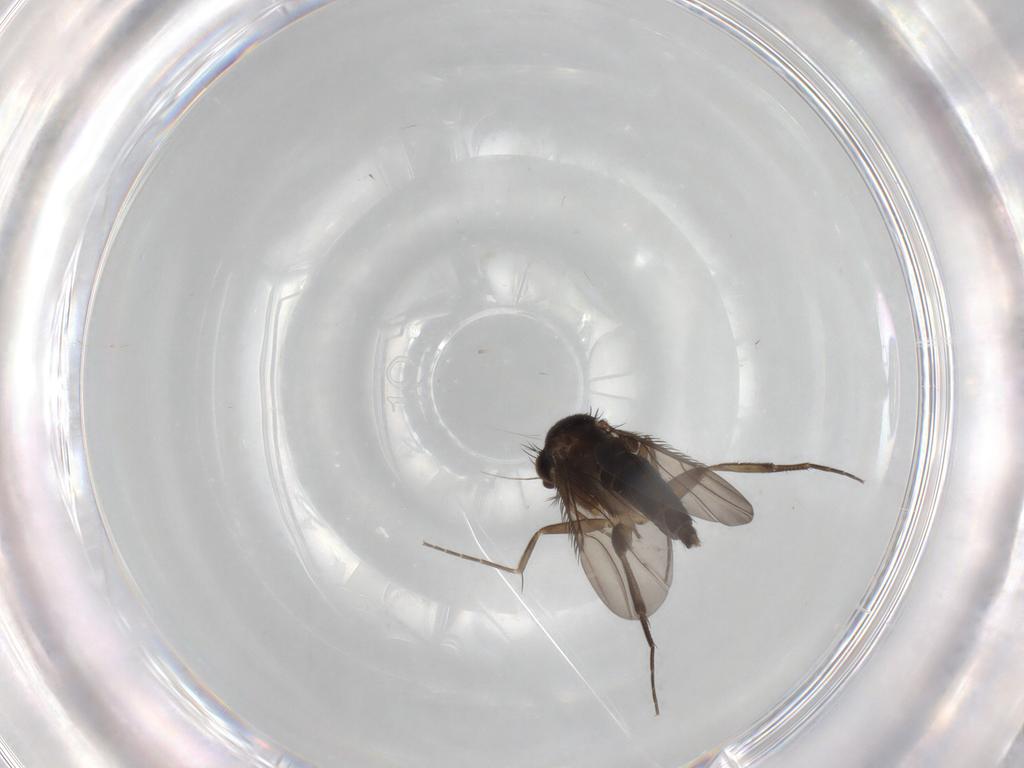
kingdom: Animalia
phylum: Arthropoda
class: Insecta
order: Diptera
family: Phoridae
